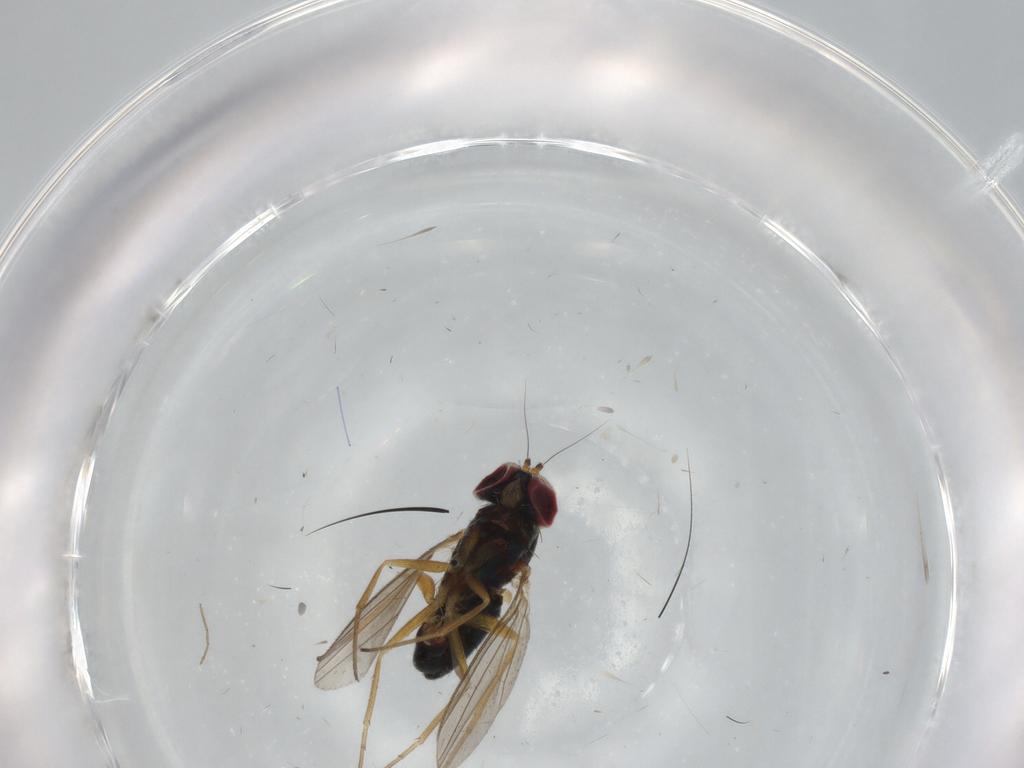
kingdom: Animalia
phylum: Arthropoda
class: Insecta
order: Diptera
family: Dolichopodidae
